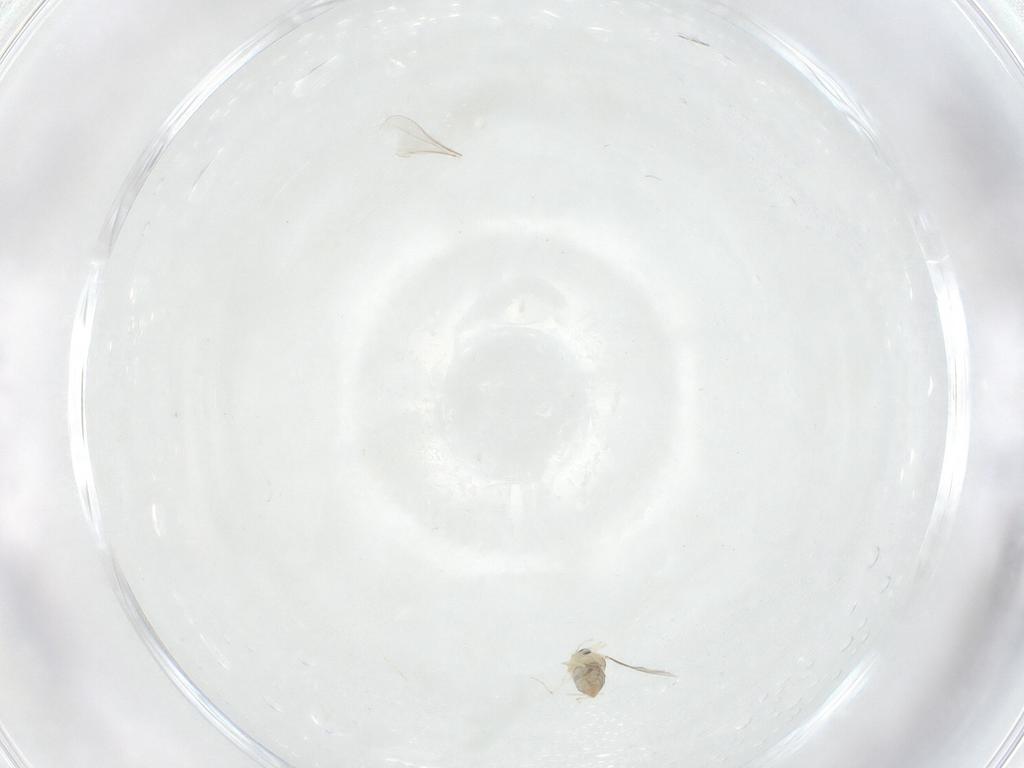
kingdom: Animalia
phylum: Arthropoda
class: Insecta
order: Hemiptera
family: Aleyrodidae
